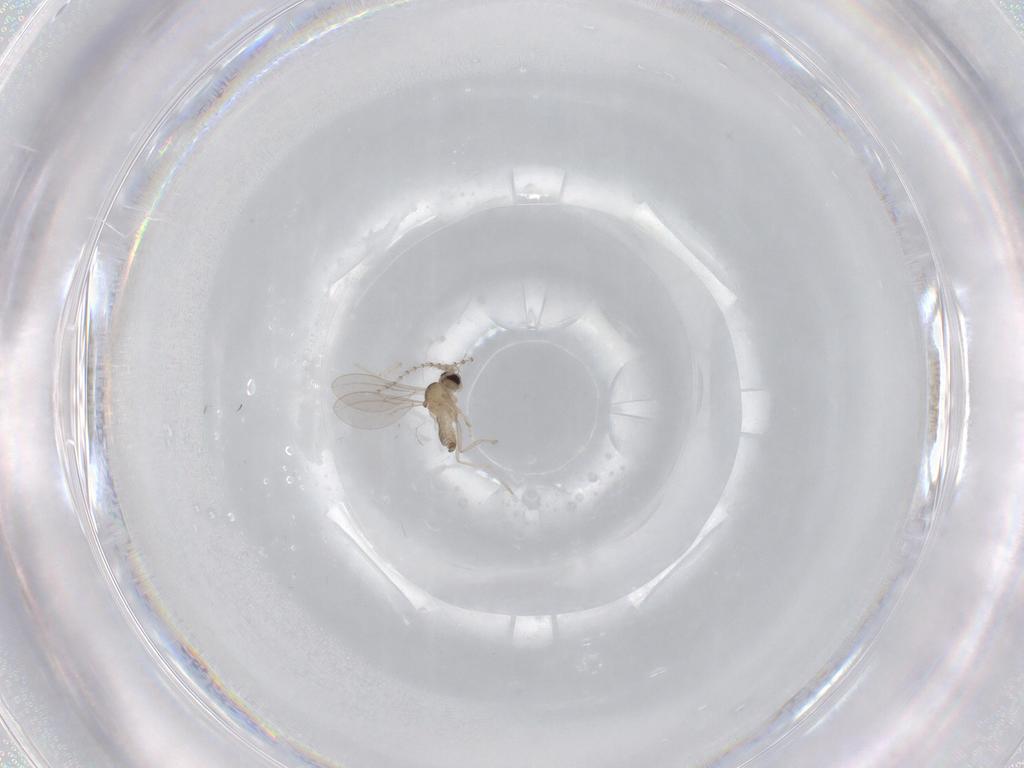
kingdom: Animalia
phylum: Arthropoda
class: Insecta
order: Diptera
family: Cecidomyiidae
